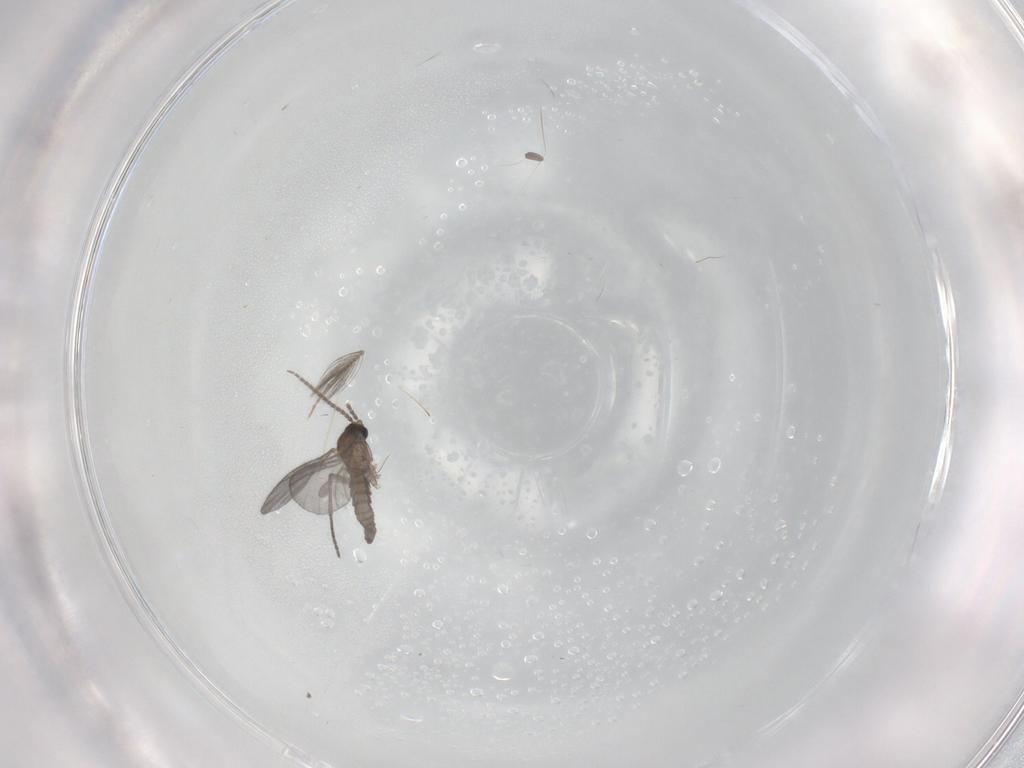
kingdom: Animalia
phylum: Arthropoda
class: Insecta
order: Diptera
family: Sciaridae
